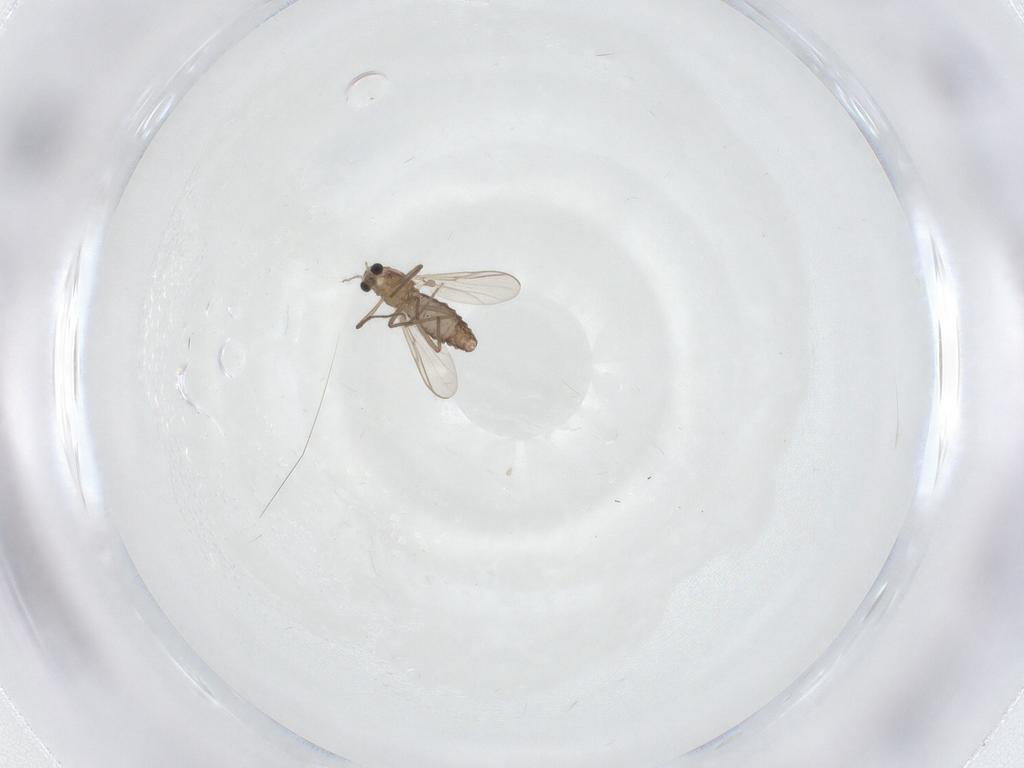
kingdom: Animalia
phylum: Arthropoda
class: Insecta
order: Diptera
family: Chironomidae
